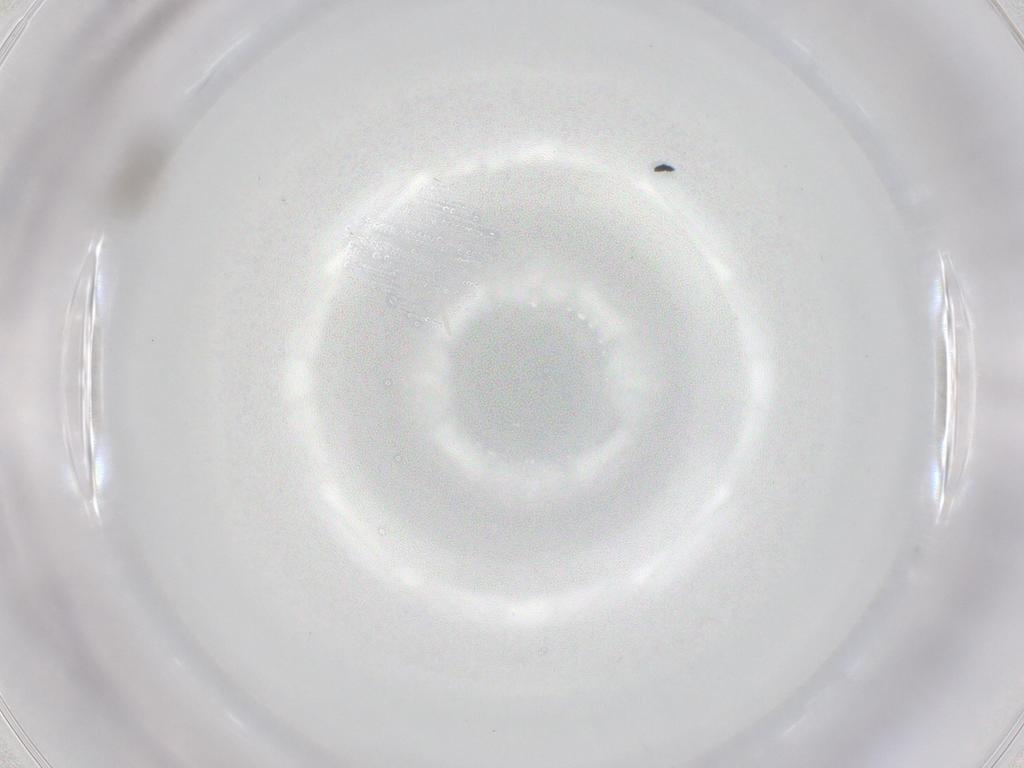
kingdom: Animalia
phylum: Arthropoda
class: Insecta
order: Diptera
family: Cecidomyiidae
